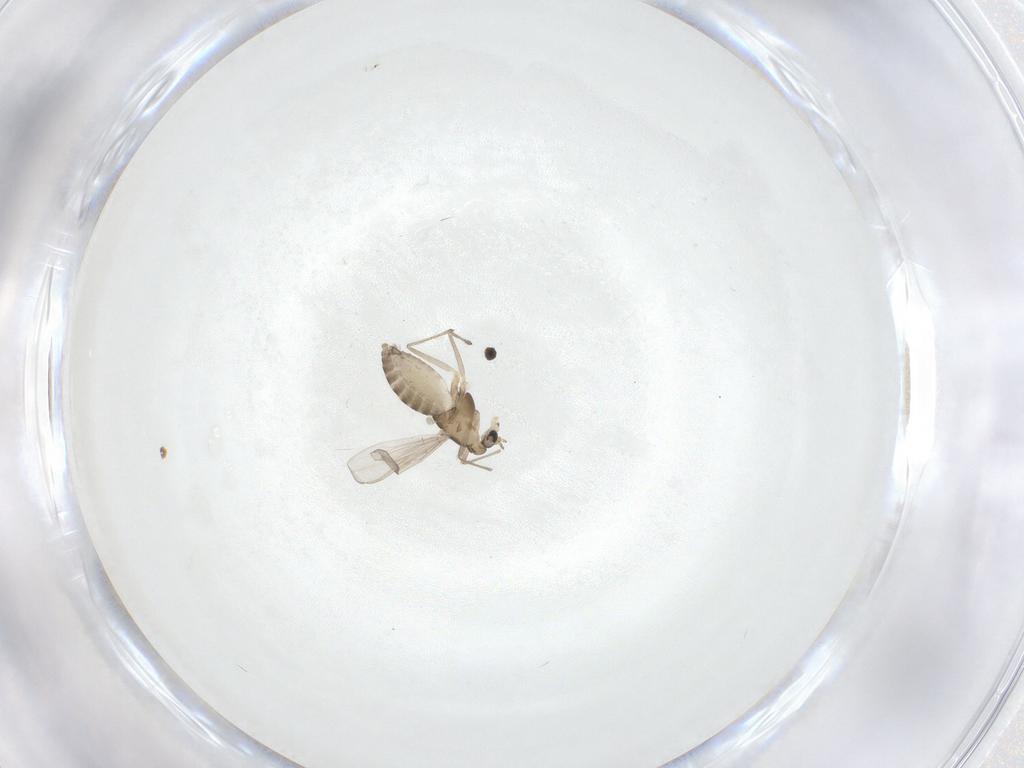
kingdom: Animalia
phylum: Arthropoda
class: Insecta
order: Diptera
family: Chironomidae
